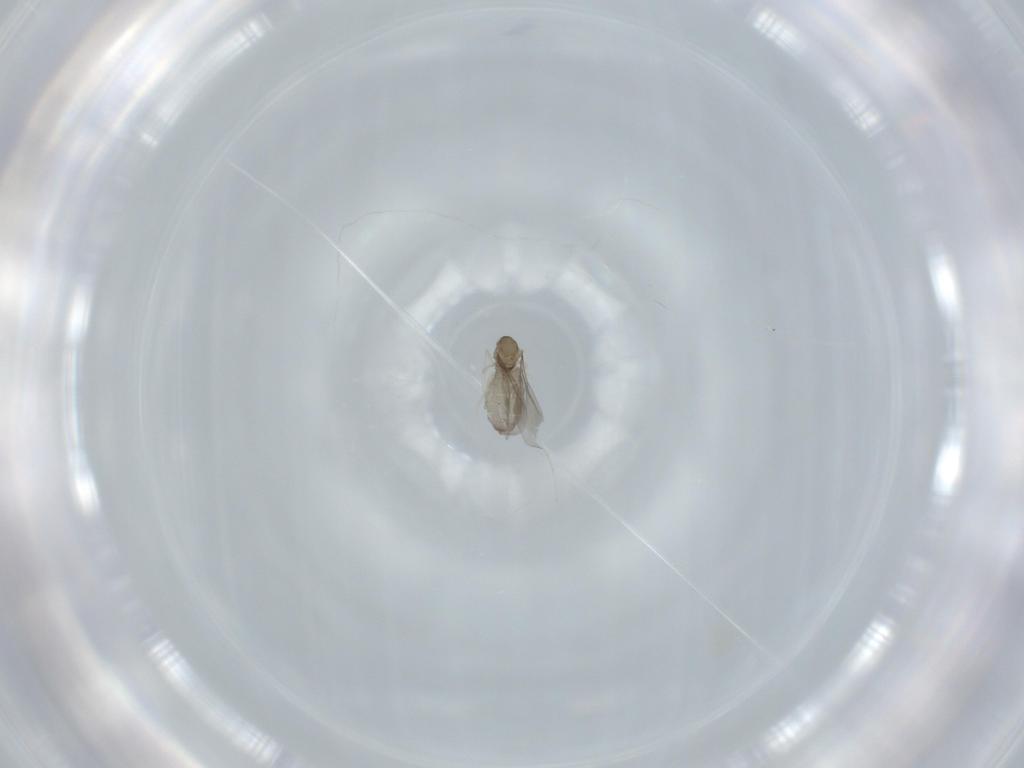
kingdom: Animalia
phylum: Arthropoda
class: Insecta
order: Diptera
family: Cecidomyiidae
